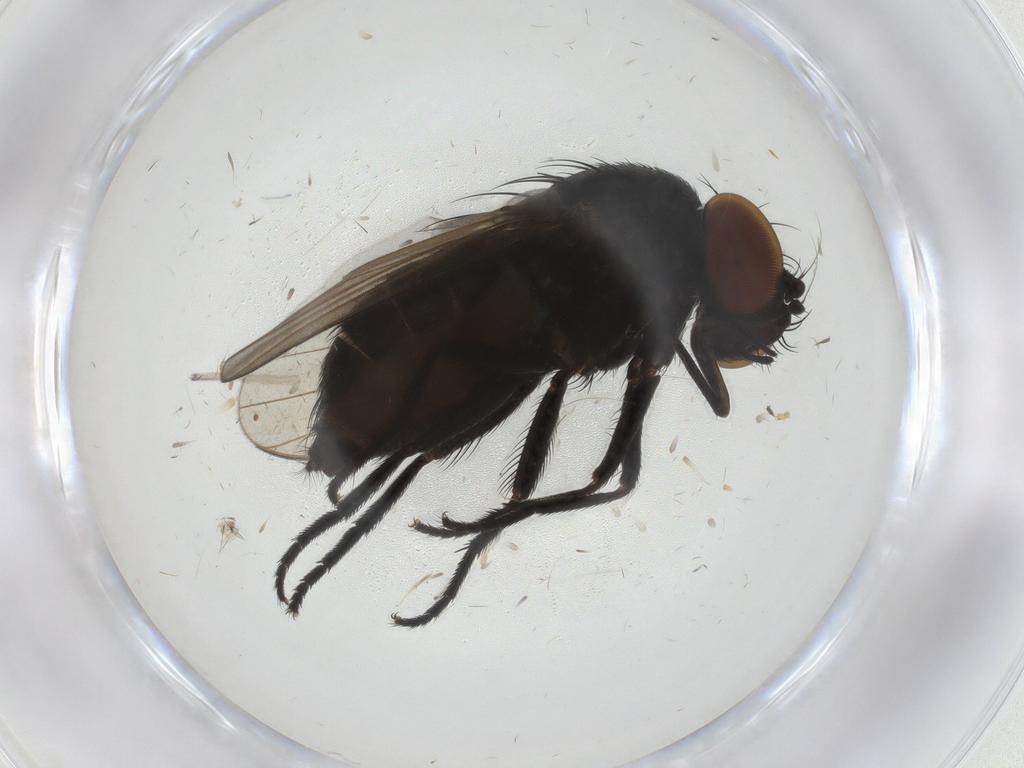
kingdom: Animalia
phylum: Arthropoda
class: Insecta
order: Diptera
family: Milichiidae
